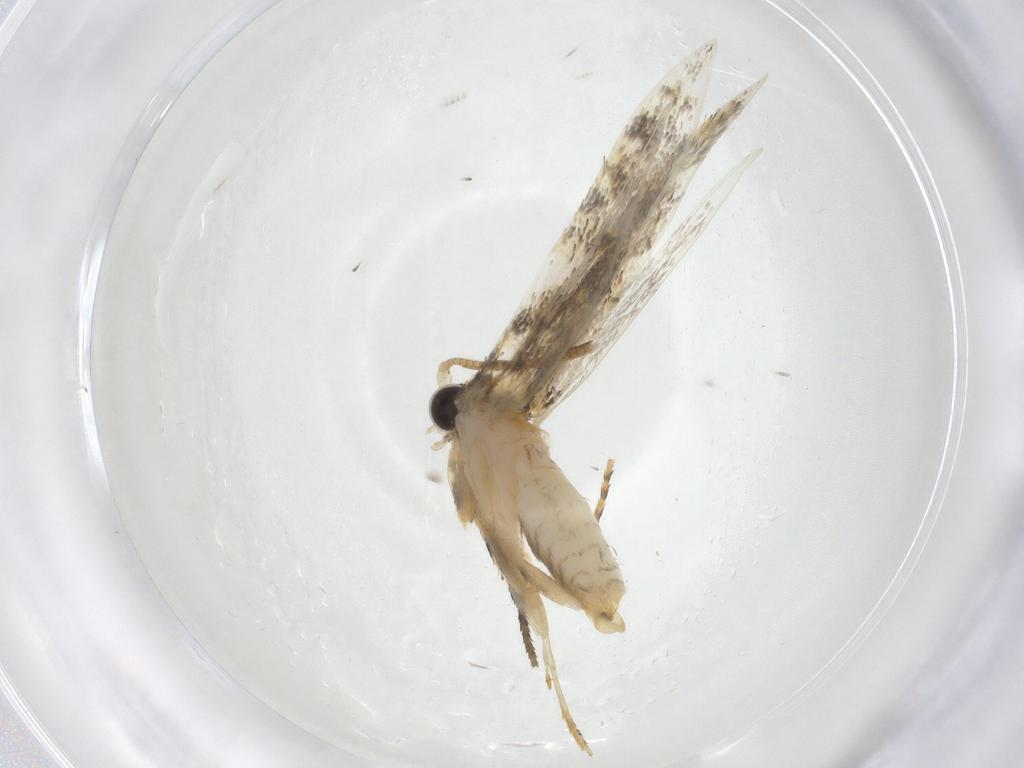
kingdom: Animalia
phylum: Arthropoda
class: Insecta
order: Lepidoptera
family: Tineidae
